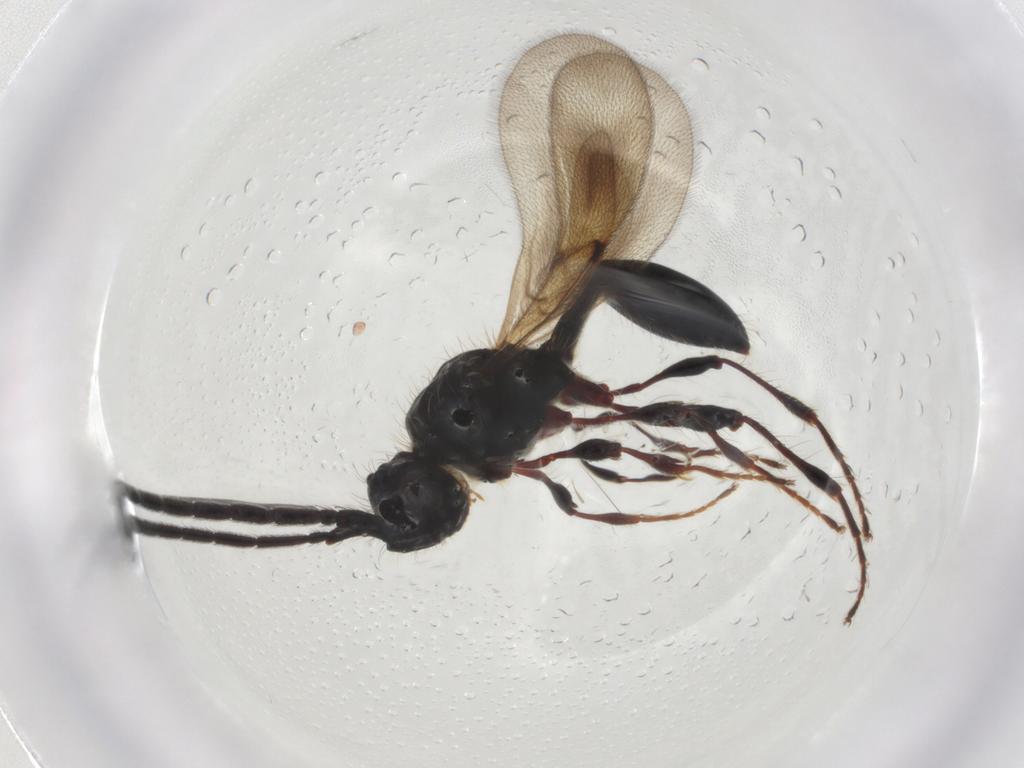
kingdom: Animalia
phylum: Arthropoda
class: Insecta
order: Hymenoptera
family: Diapriidae
